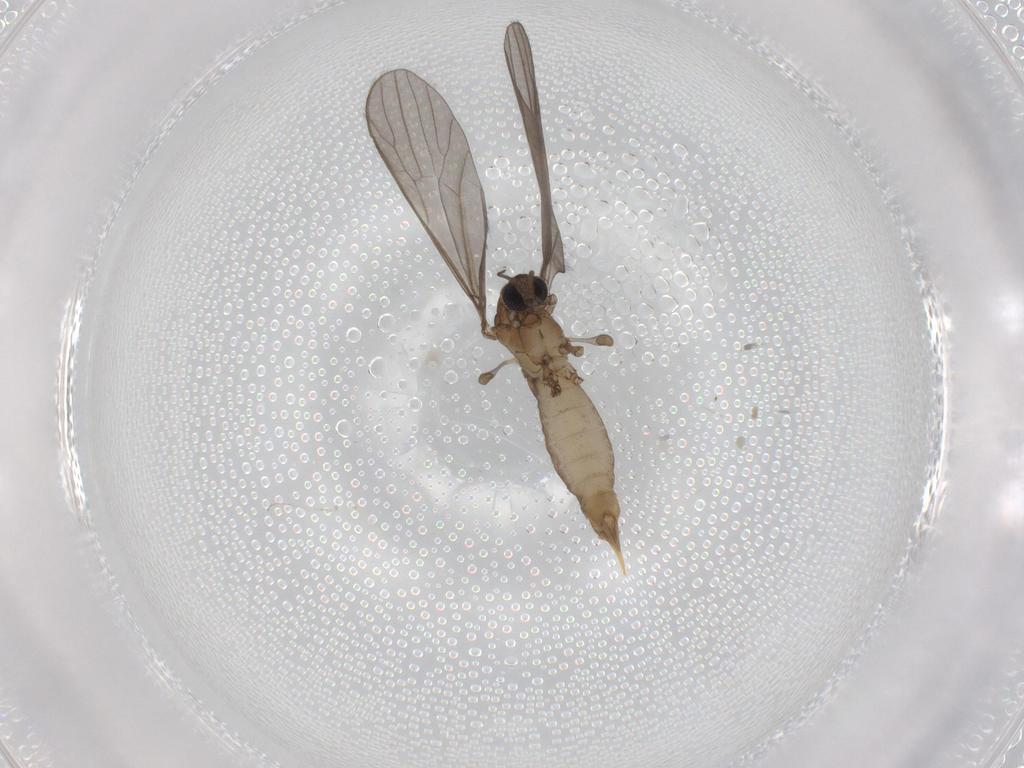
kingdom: Animalia
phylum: Arthropoda
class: Insecta
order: Diptera
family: Limoniidae
